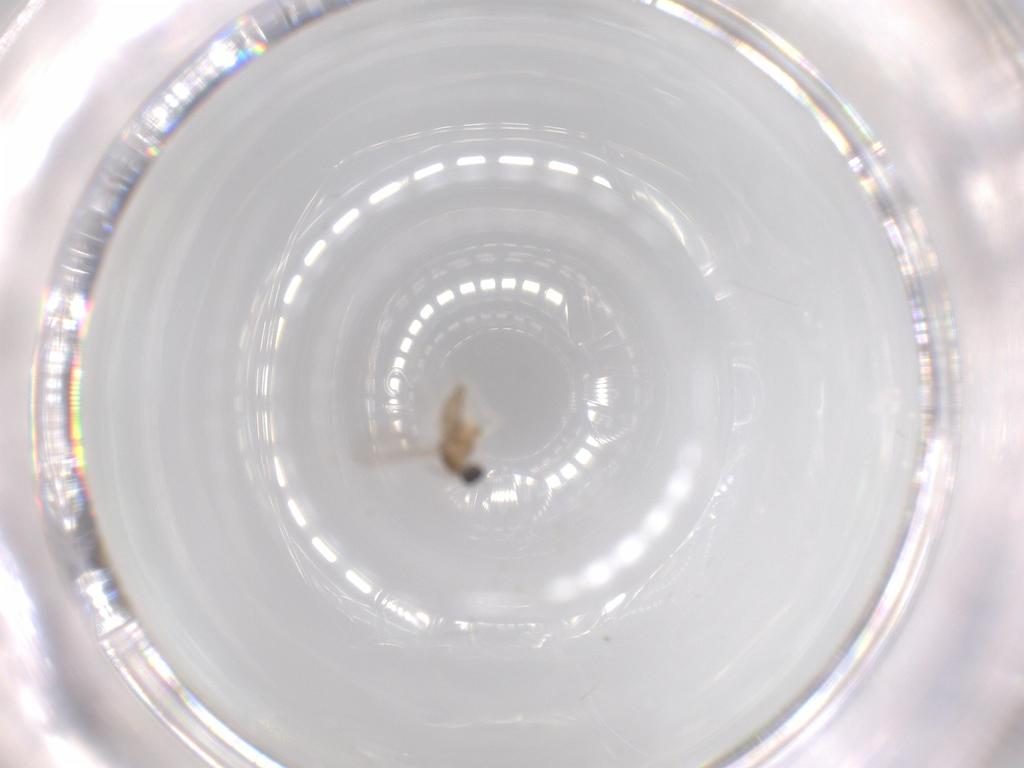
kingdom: Animalia
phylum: Arthropoda
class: Insecta
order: Diptera
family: Cecidomyiidae
